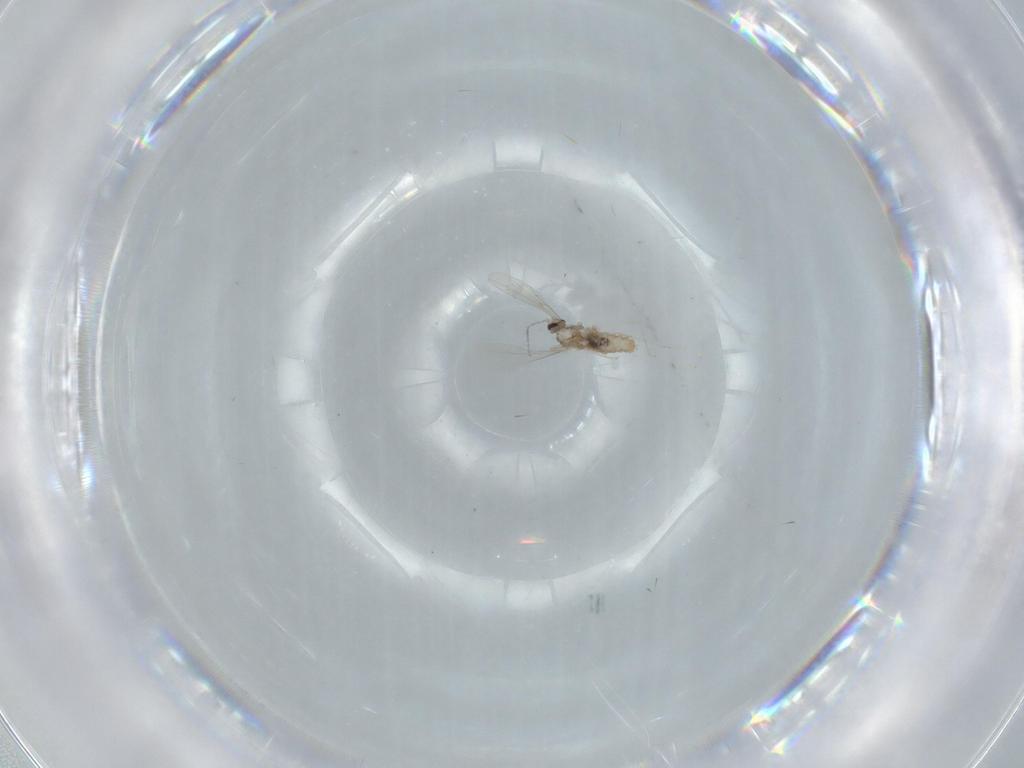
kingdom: Animalia
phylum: Arthropoda
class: Insecta
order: Diptera
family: Cecidomyiidae
